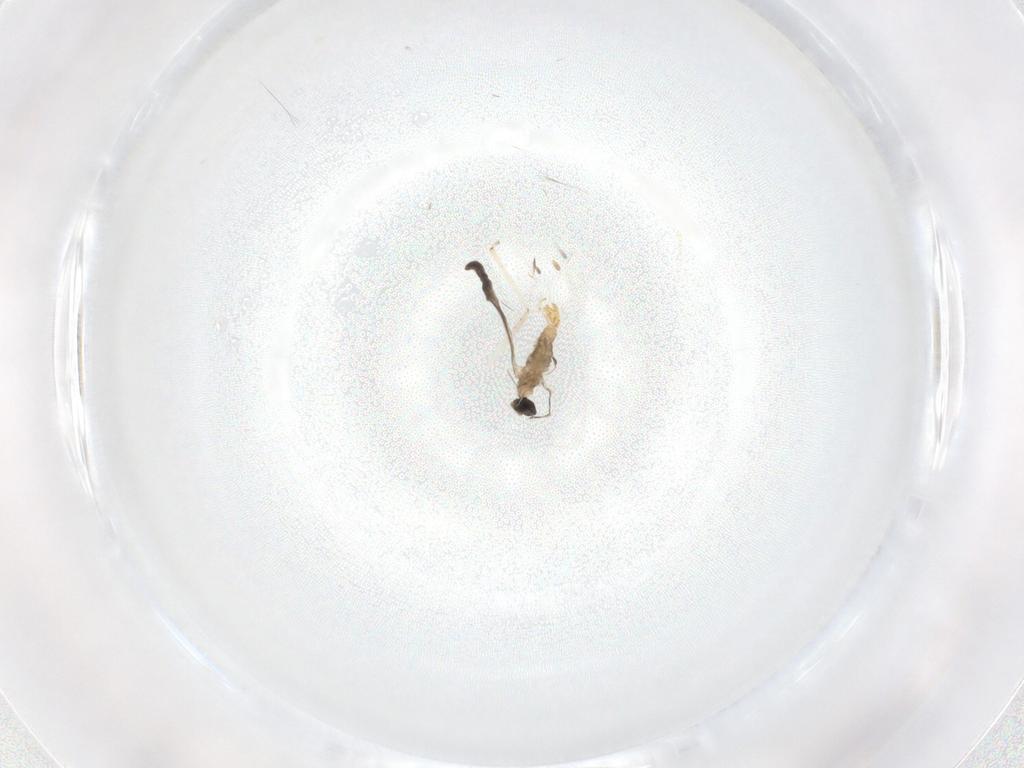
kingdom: Animalia
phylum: Arthropoda
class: Insecta
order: Diptera
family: Cecidomyiidae
